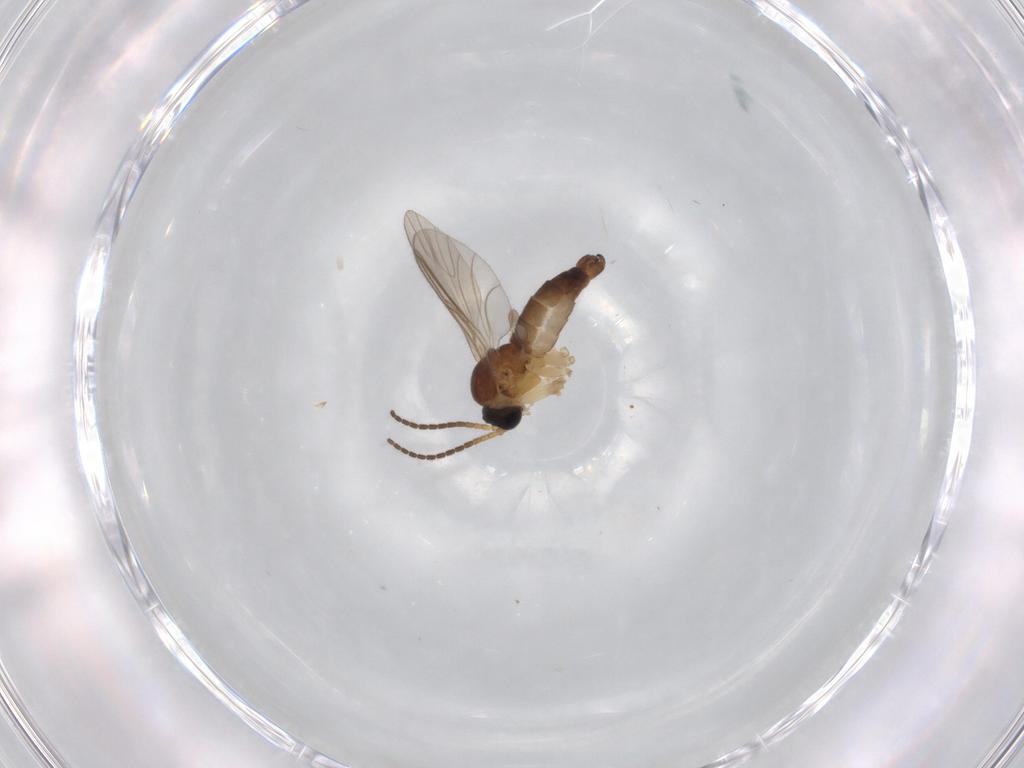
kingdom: Animalia
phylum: Arthropoda
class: Insecta
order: Diptera
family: Sciaridae
